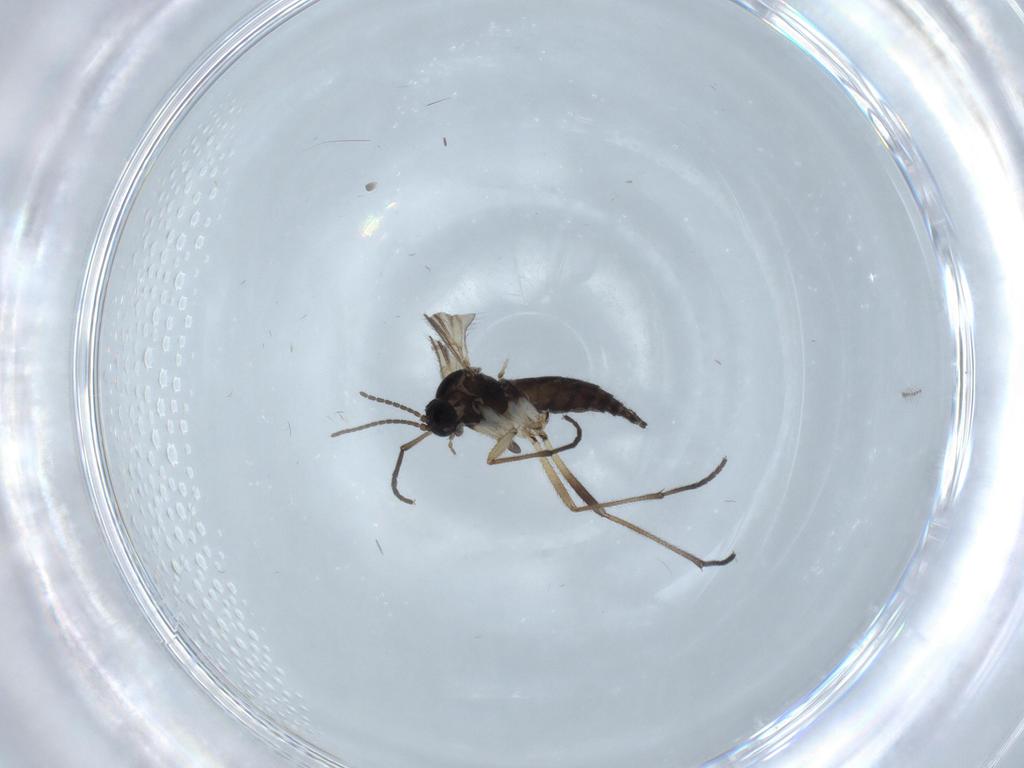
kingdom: Animalia
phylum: Arthropoda
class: Insecta
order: Diptera
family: Sciaridae
